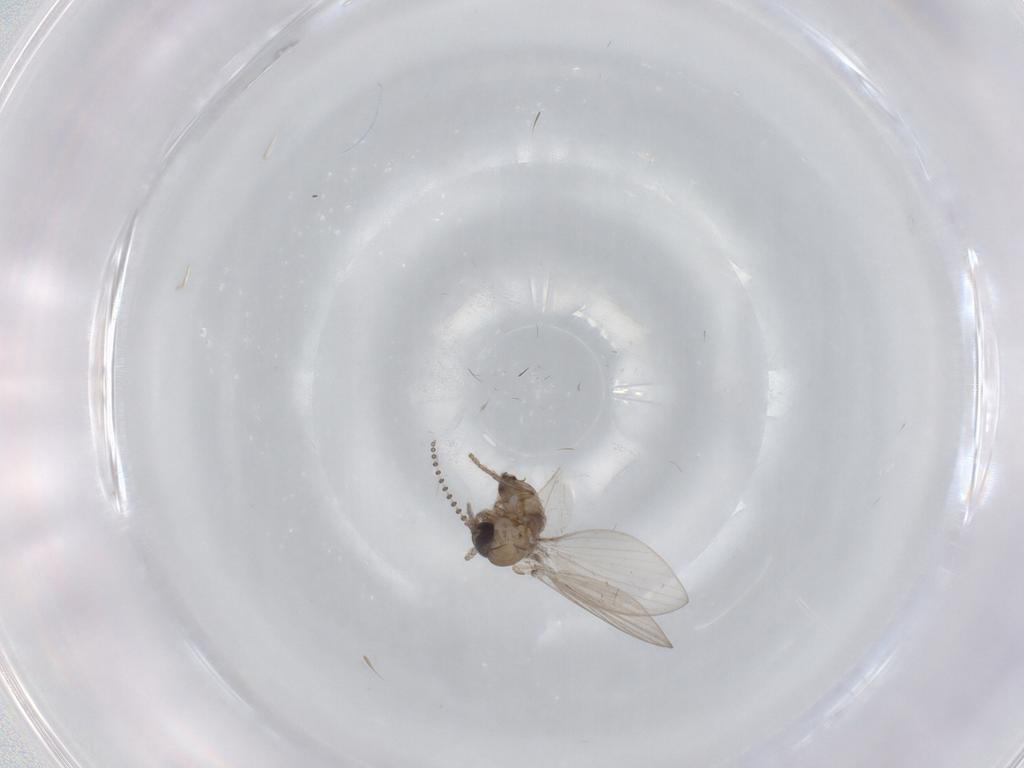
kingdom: Animalia
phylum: Arthropoda
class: Insecta
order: Diptera
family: Psychodidae
